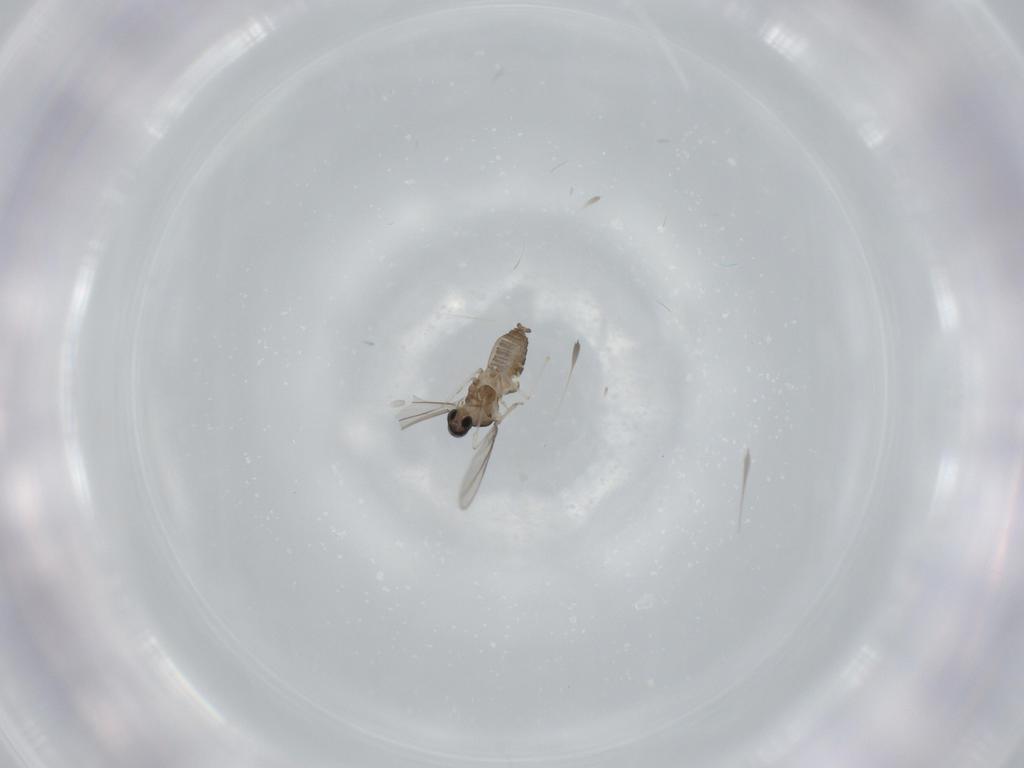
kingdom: Animalia
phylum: Arthropoda
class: Insecta
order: Diptera
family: Cecidomyiidae
